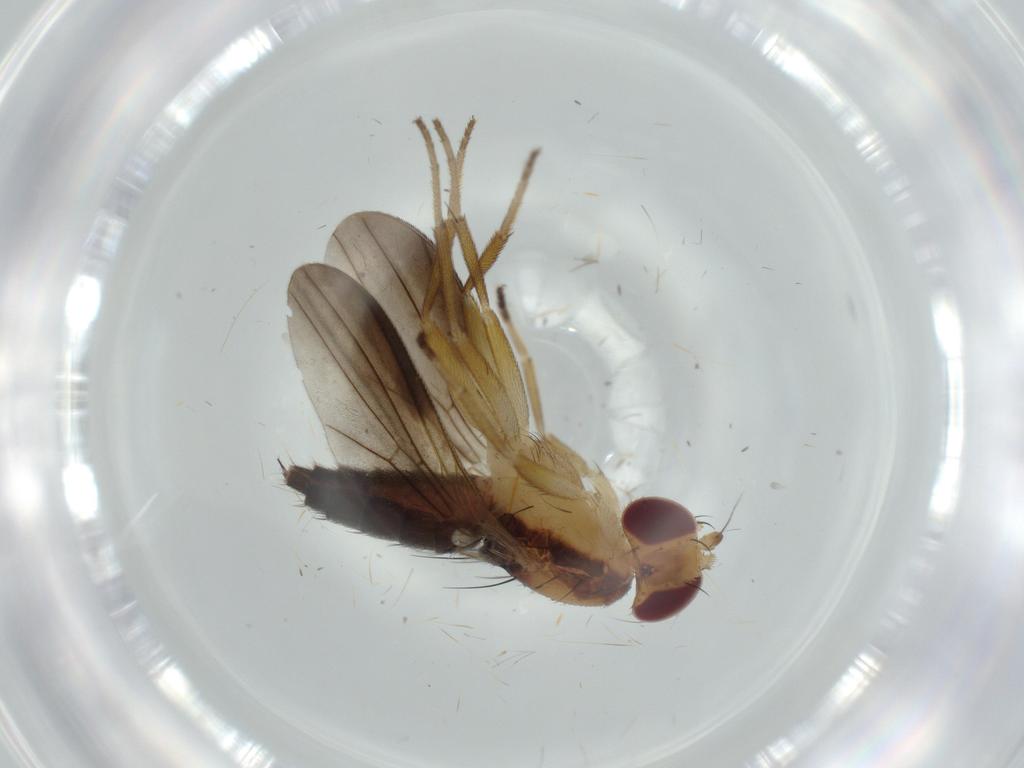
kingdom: Animalia
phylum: Arthropoda
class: Insecta
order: Diptera
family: Clusiidae
